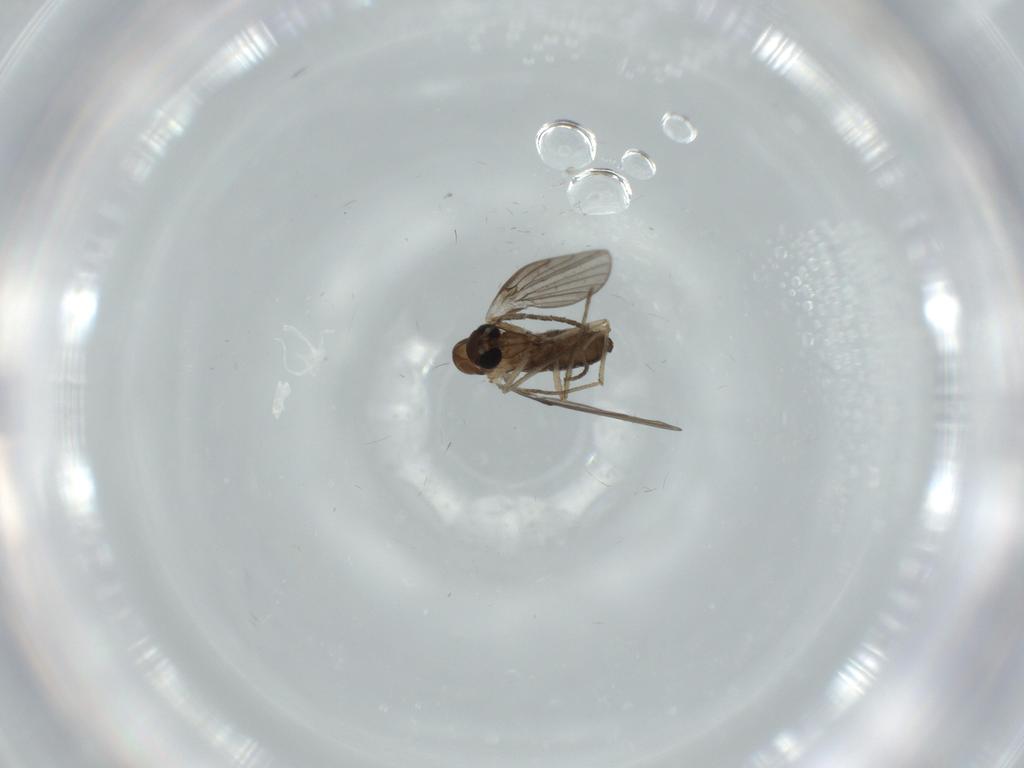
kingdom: Animalia
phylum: Arthropoda
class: Insecta
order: Diptera
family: Psychodidae
